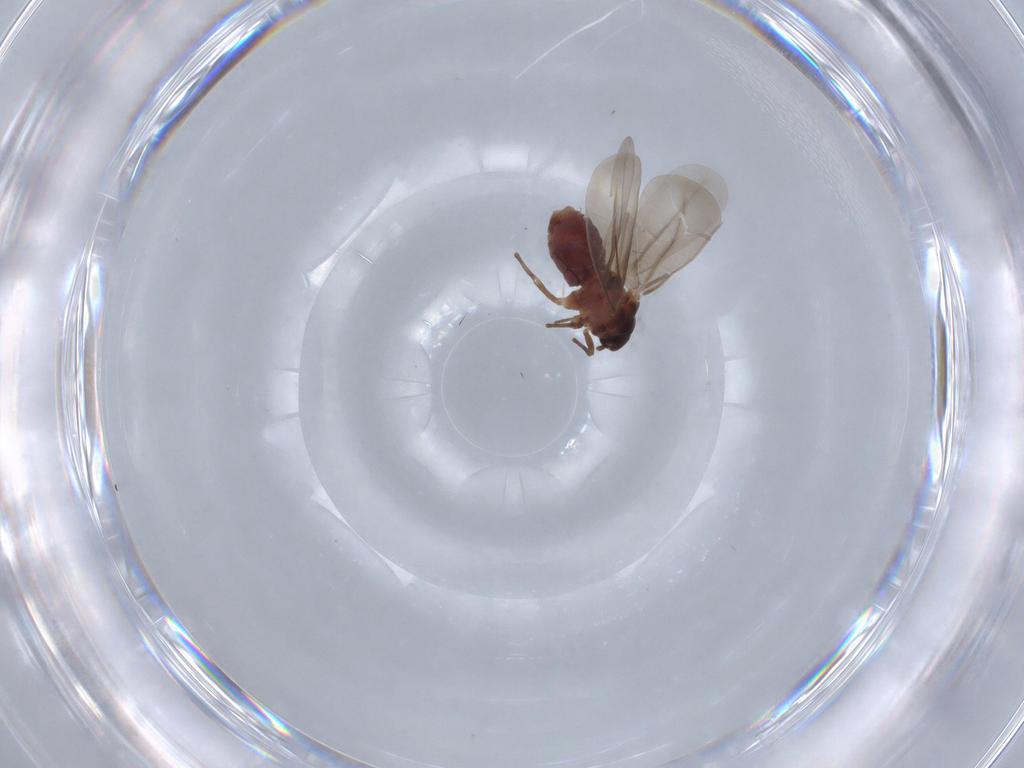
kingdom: Animalia
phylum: Arthropoda
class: Insecta
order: Hemiptera
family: Aleyrodidae
